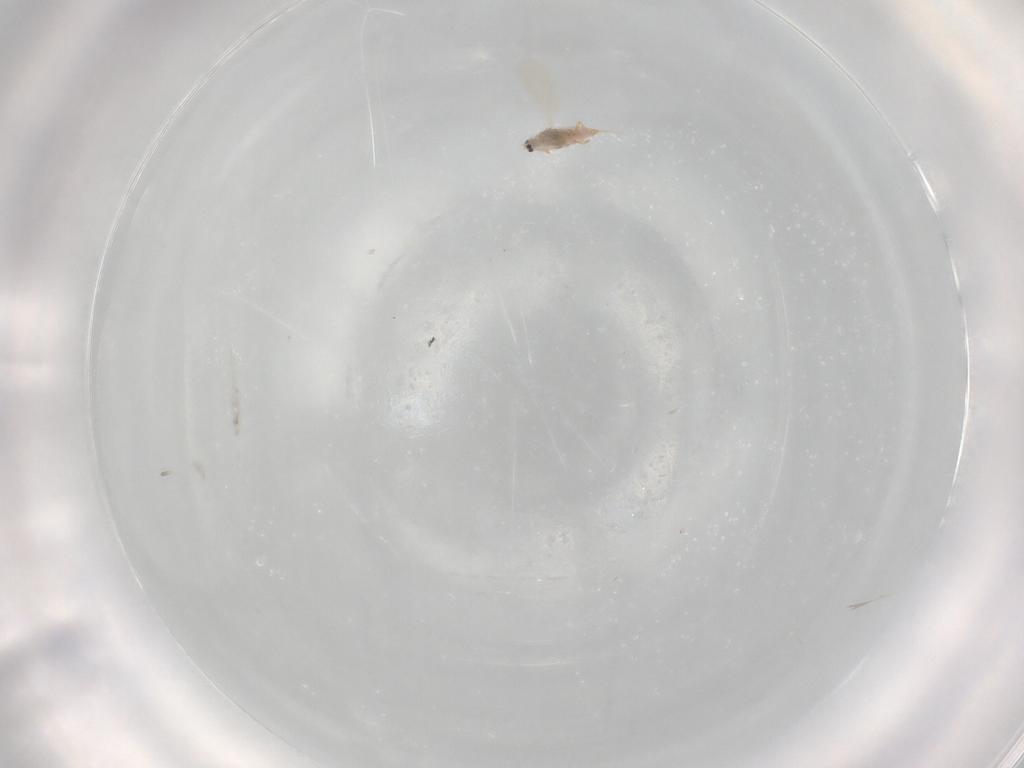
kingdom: Animalia
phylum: Arthropoda
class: Insecta
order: Hemiptera
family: Diaspididae
